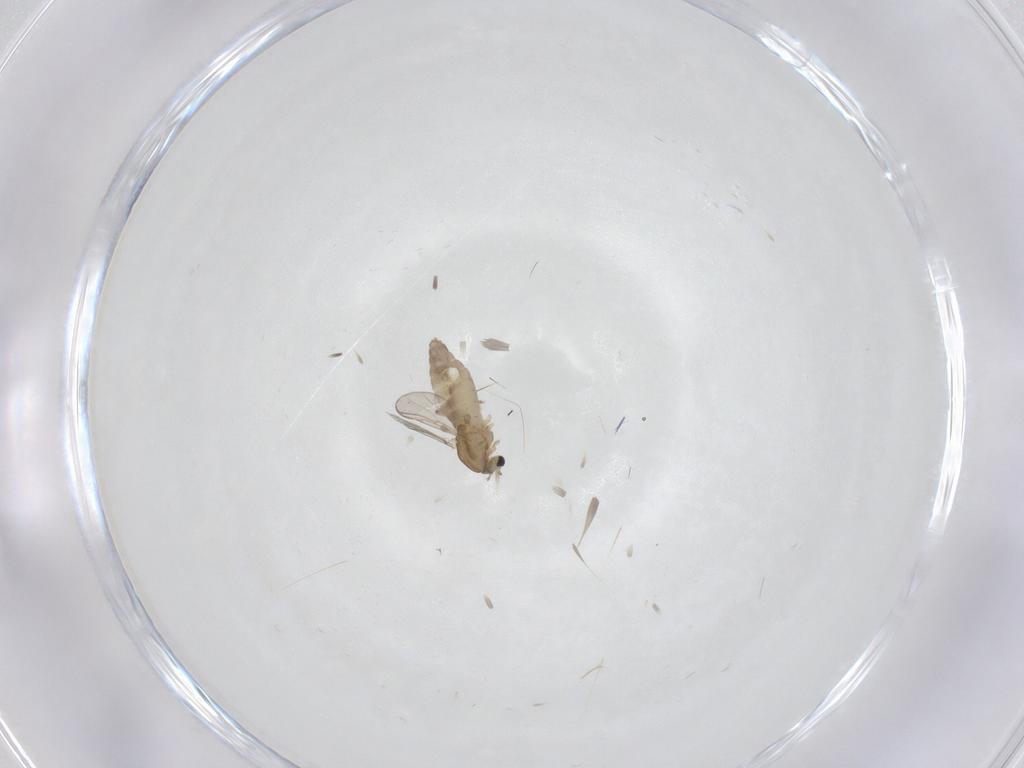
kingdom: Animalia
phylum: Arthropoda
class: Insecta
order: Diptera
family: Chironomidae
